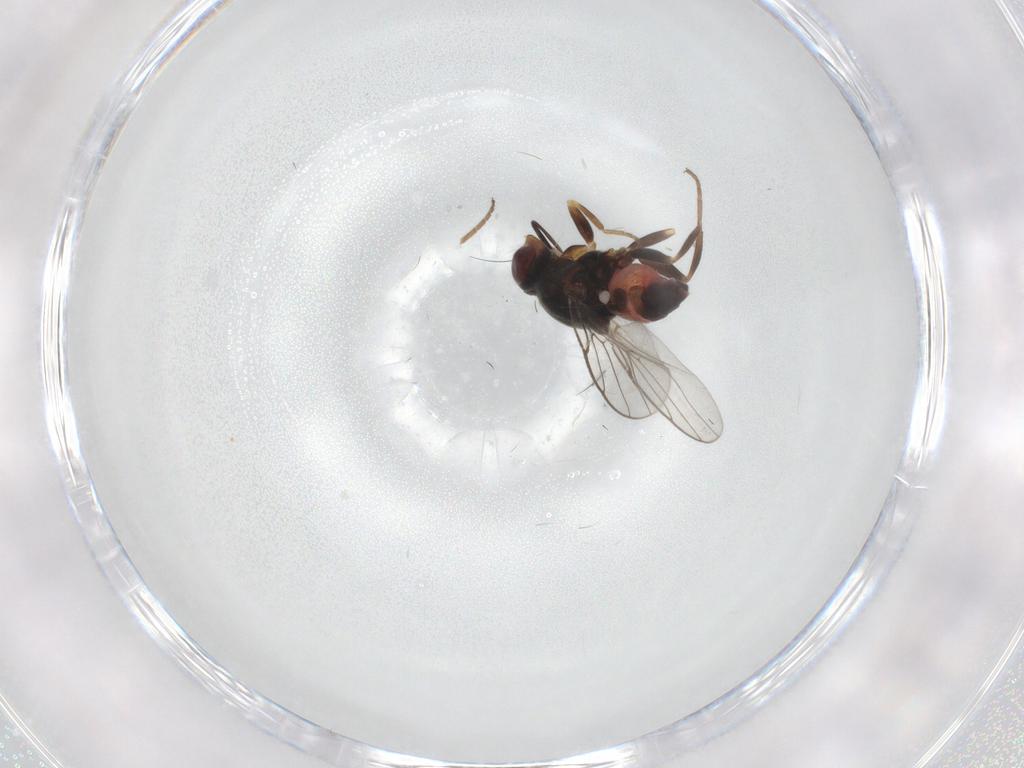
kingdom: Animalia
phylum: Arthropoda
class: Insecta
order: Diptera
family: Chloropidae
